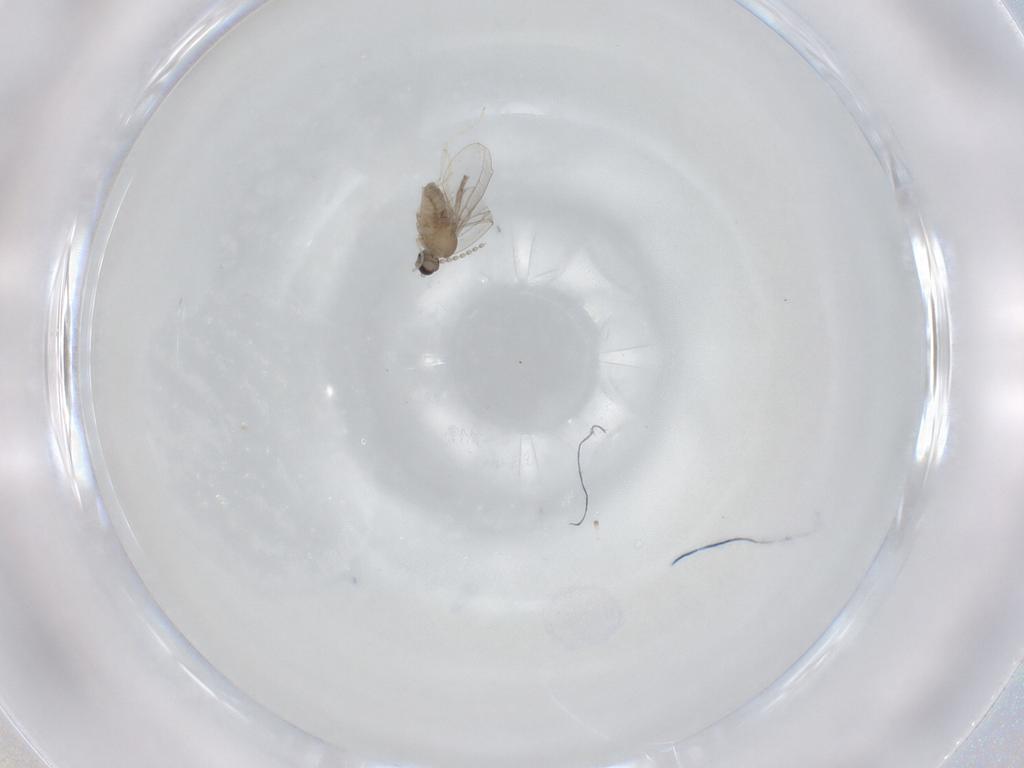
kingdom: Animalia
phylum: Arthropoda
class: Insecta
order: Diptera
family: Cecidomyiidae
